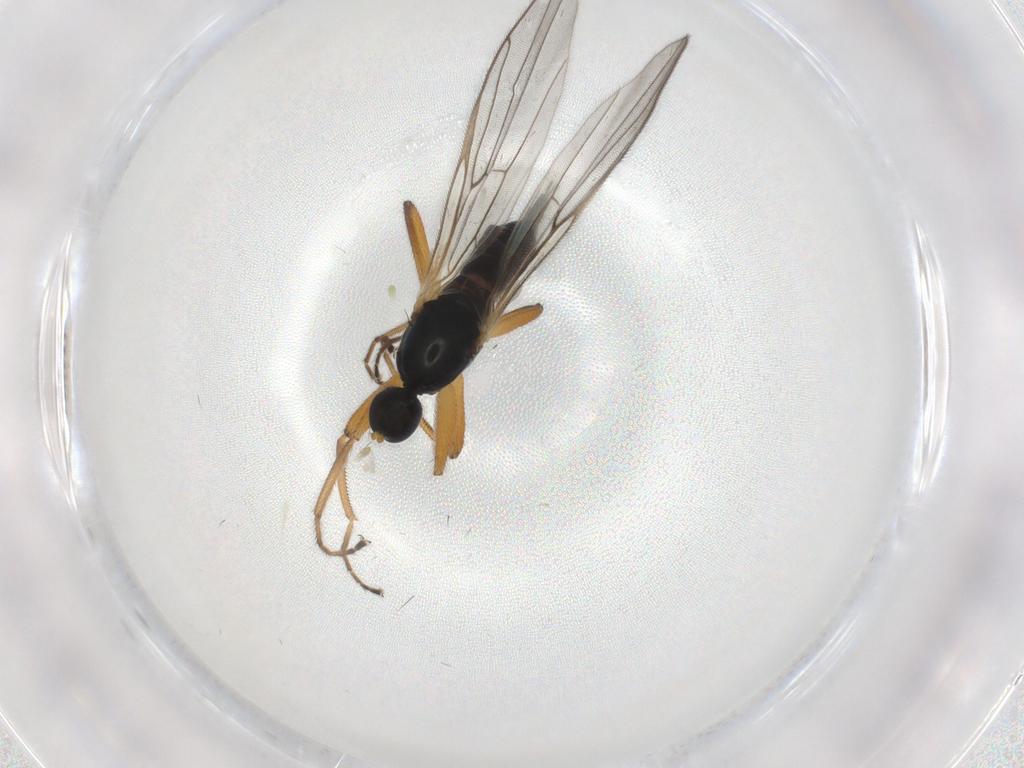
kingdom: Animalia
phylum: Arthropoda
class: Insecta
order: Diptera
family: Hybotidae
